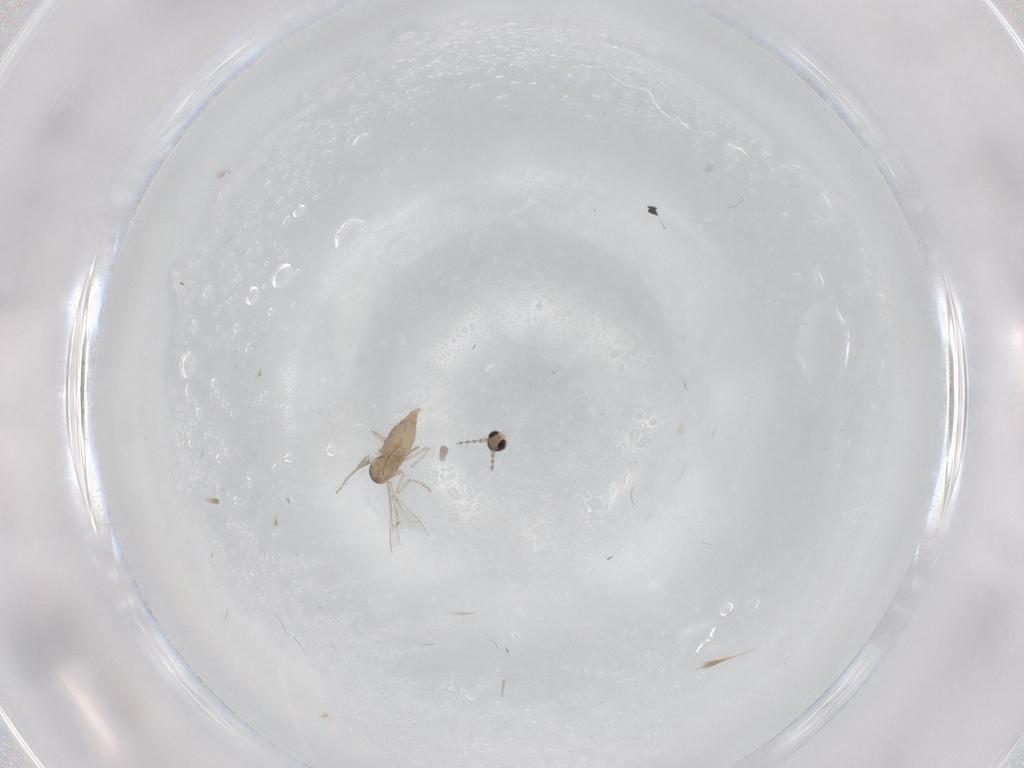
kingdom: Animalia
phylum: Arthropoda
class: Insecta
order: Diptera
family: Cecidomyiidae
